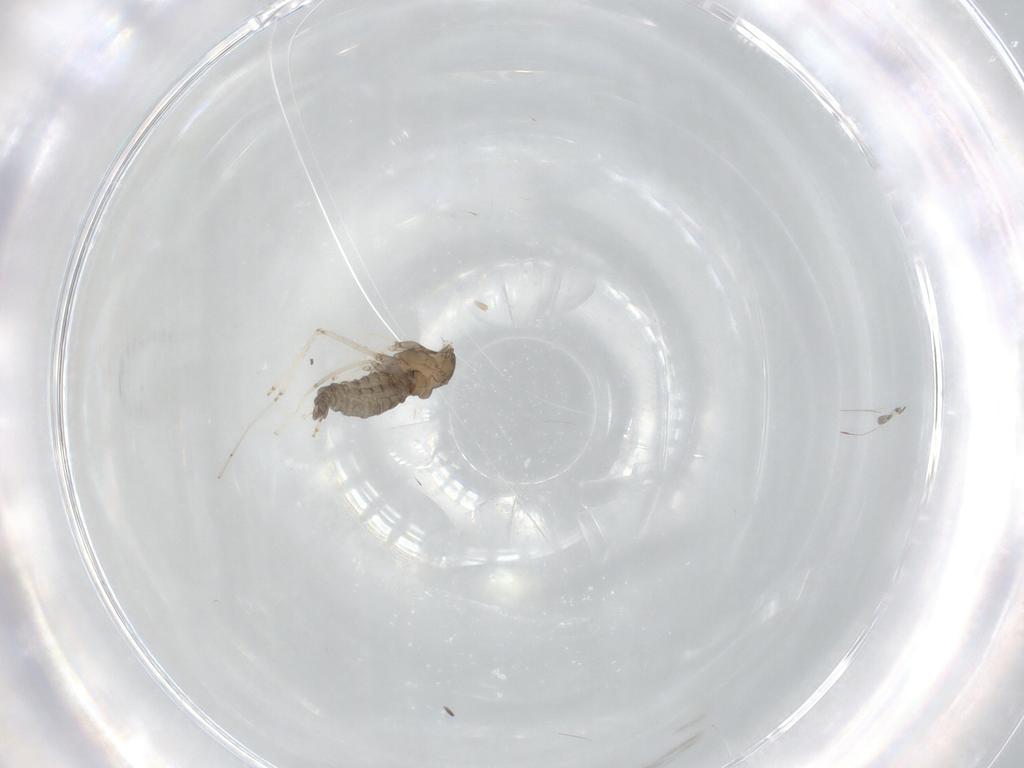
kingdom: Animalia
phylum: Arthropoda
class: Insecta
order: Diptera
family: Cecidomyiidae
